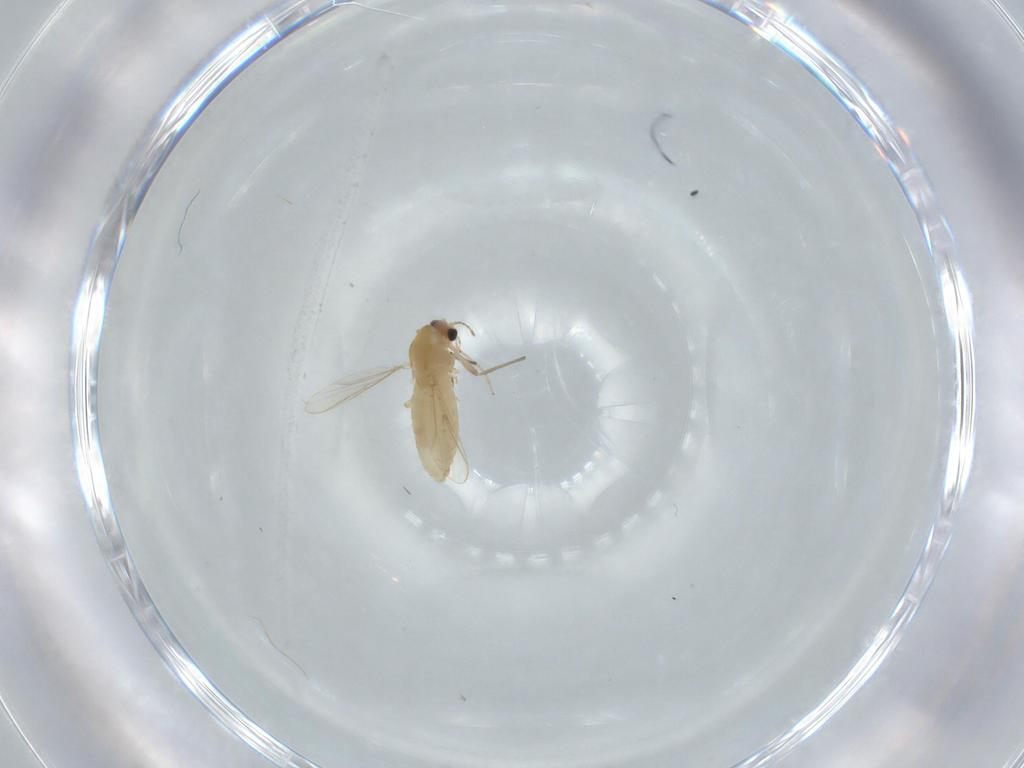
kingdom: Animalia
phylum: Arthropoda
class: Insecta
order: Diptera
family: Chironomidae
